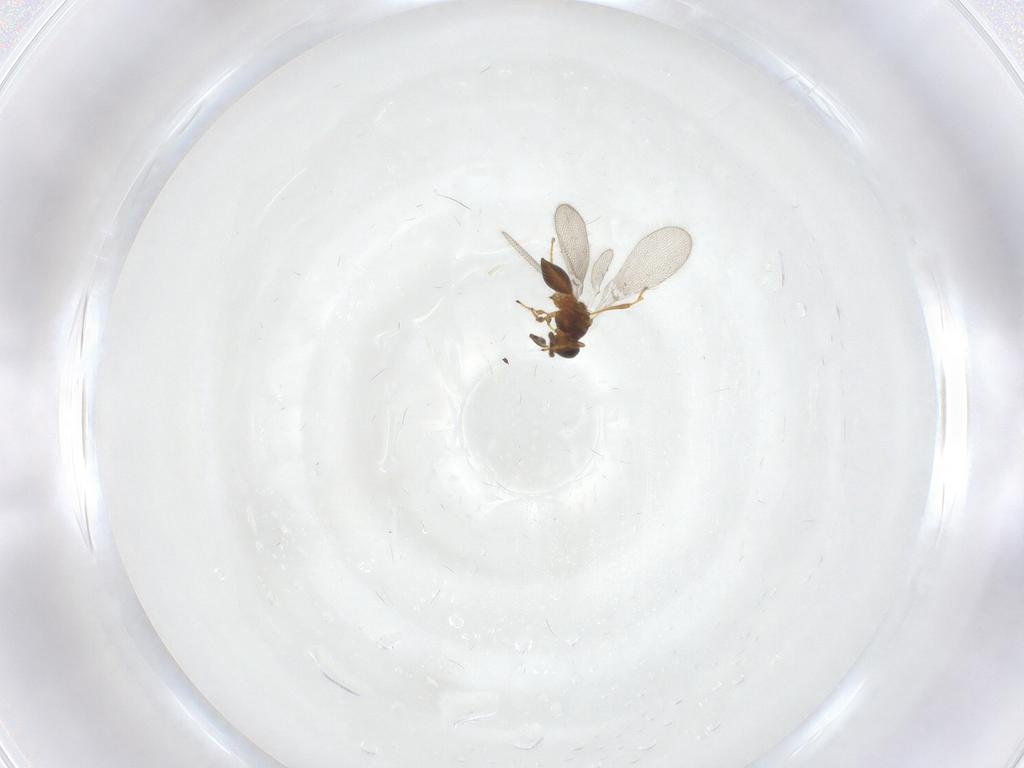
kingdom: Animalia
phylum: Arthropoda
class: Insecta
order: Hymenoptera
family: Platygastridae
